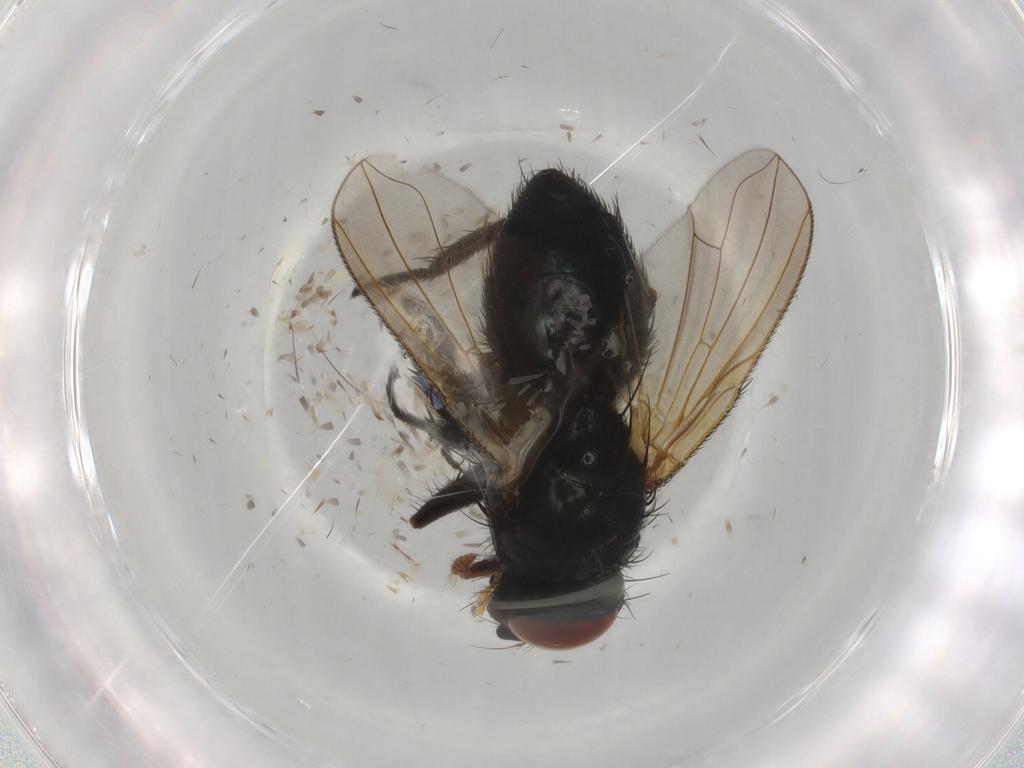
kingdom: Animalia
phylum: Arthropoda
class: Insecta
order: Diptera
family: Tachinidae
